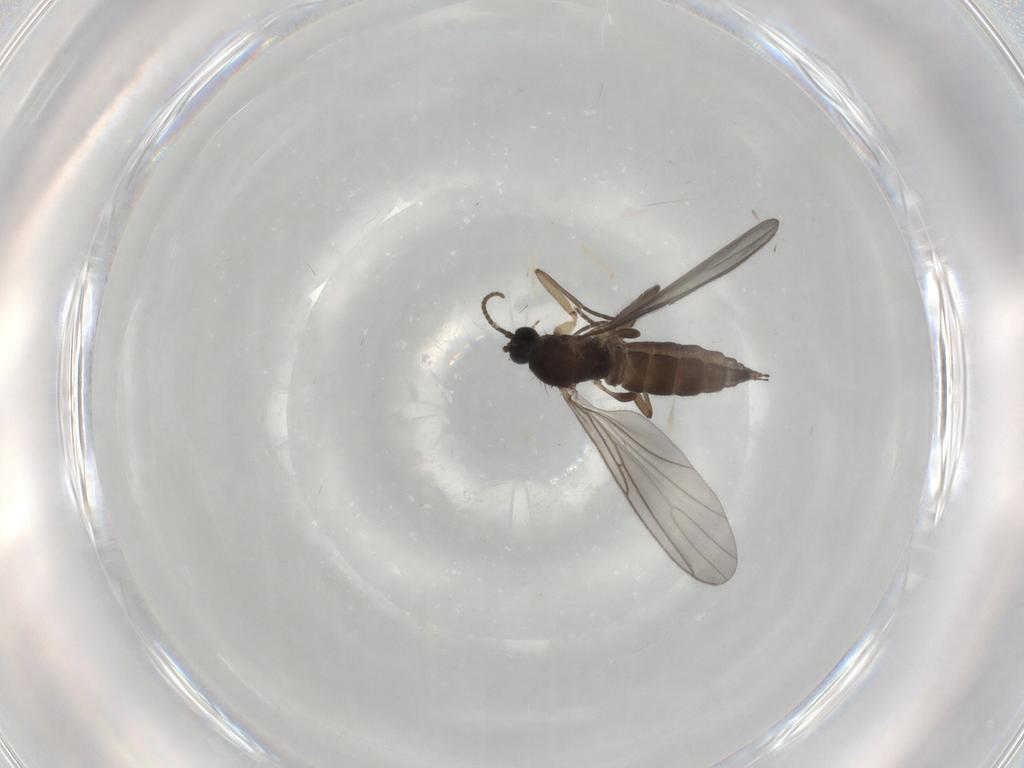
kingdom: Animalia
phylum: Arthropoda
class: Insecta
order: Diptera
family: Sciaridae
